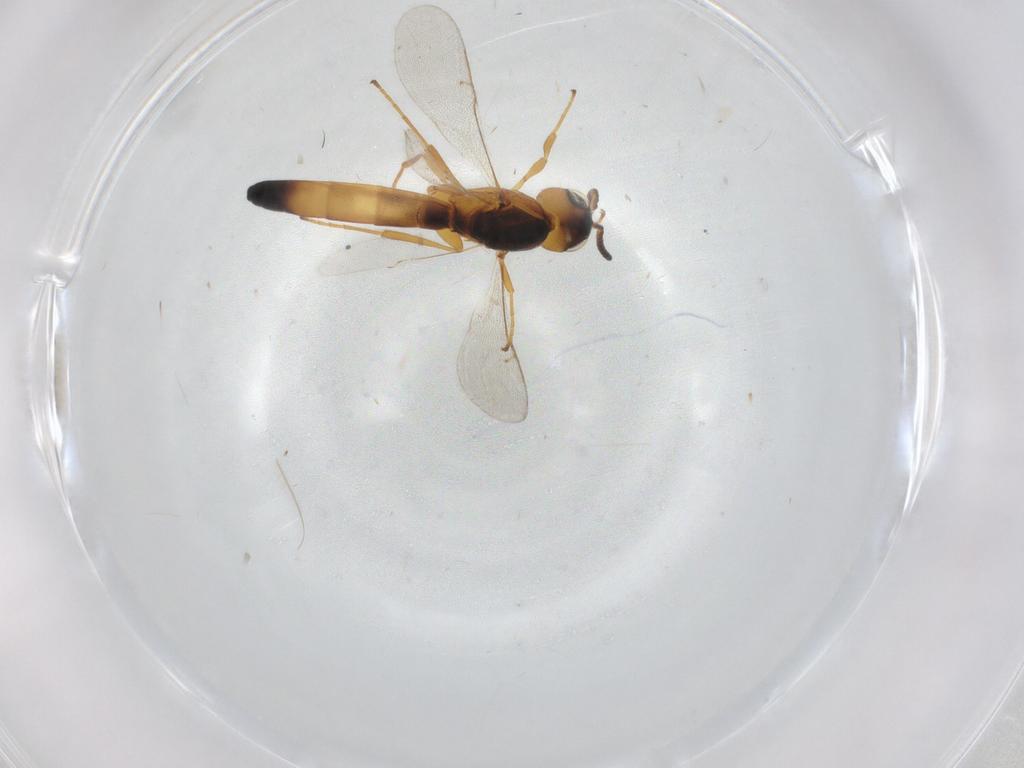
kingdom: Animalia
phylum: Arthropoda
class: Insecta
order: Hymenoptera
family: Scelionidae
